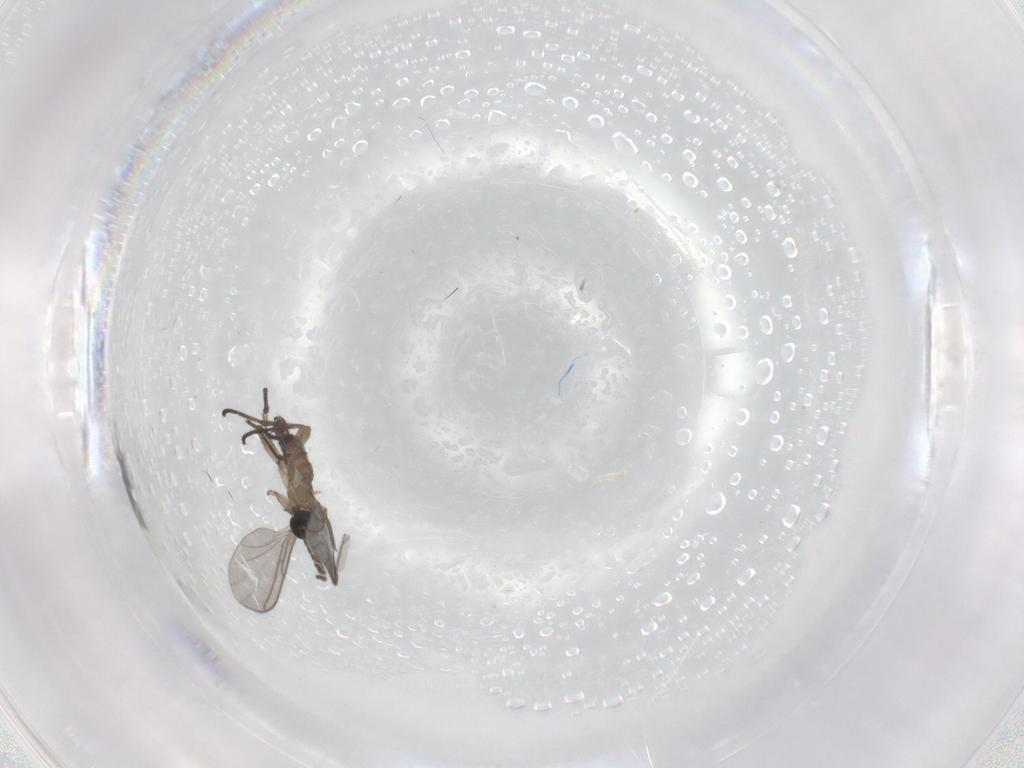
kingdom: Animalia
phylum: Arthropoda
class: Insecta
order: Diptera
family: Sciaridae
